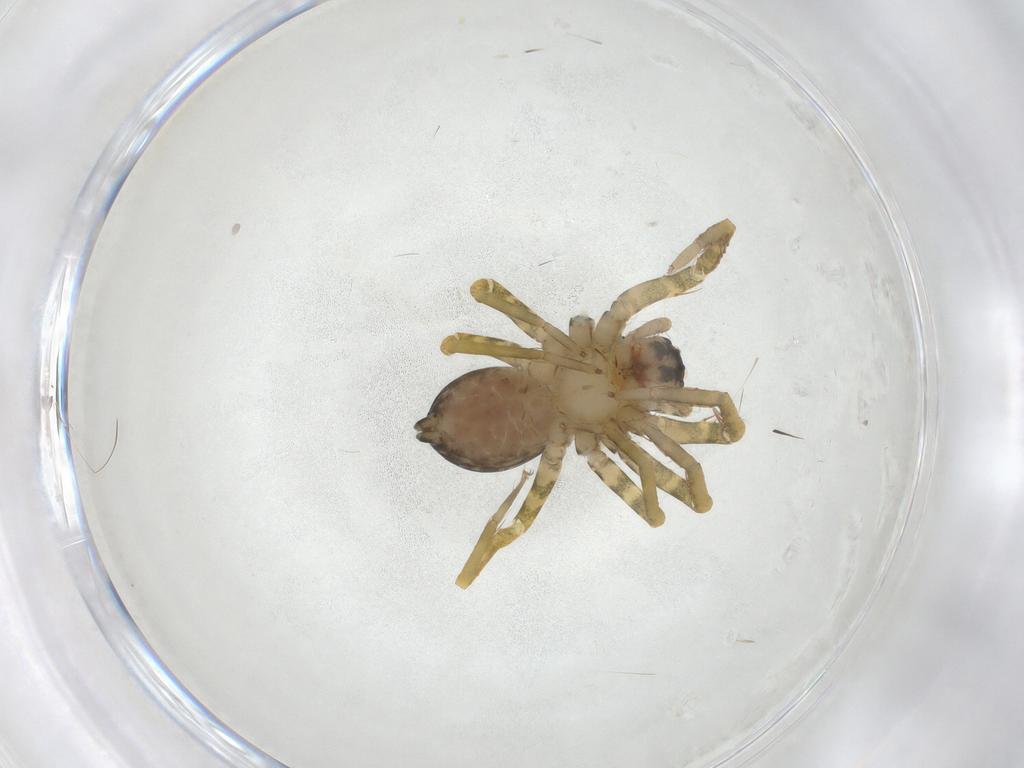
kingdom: Animalia
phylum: Arthropoda
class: Arachnida
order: Araneae
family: Ctenidae
